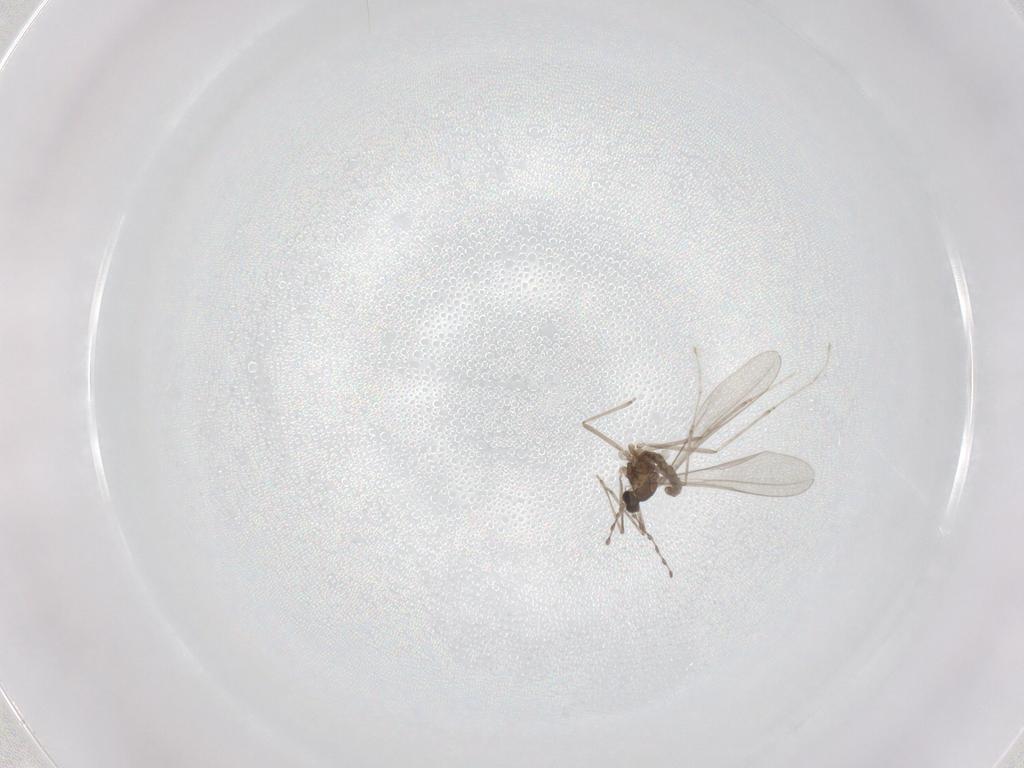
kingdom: Animalia
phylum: Arthropoda
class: Insecta
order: Diptera
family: Cecidomyiidae
